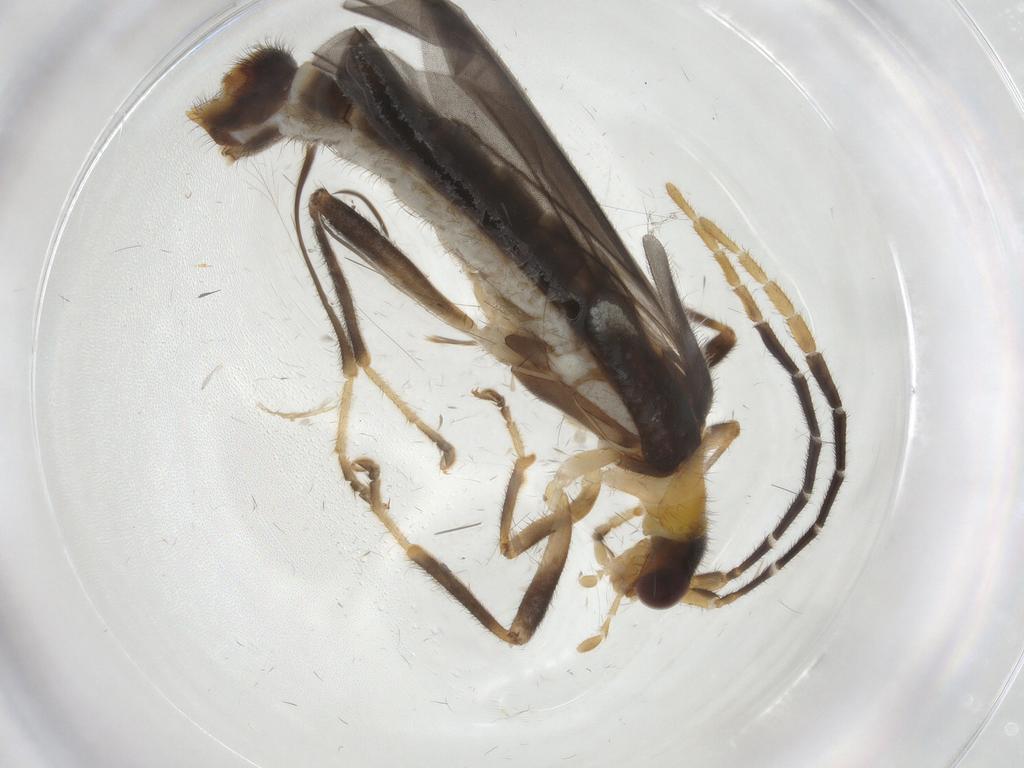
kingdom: Animalia
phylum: Arthropoda
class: Insecta
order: Coleoptera
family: Cantharidae
